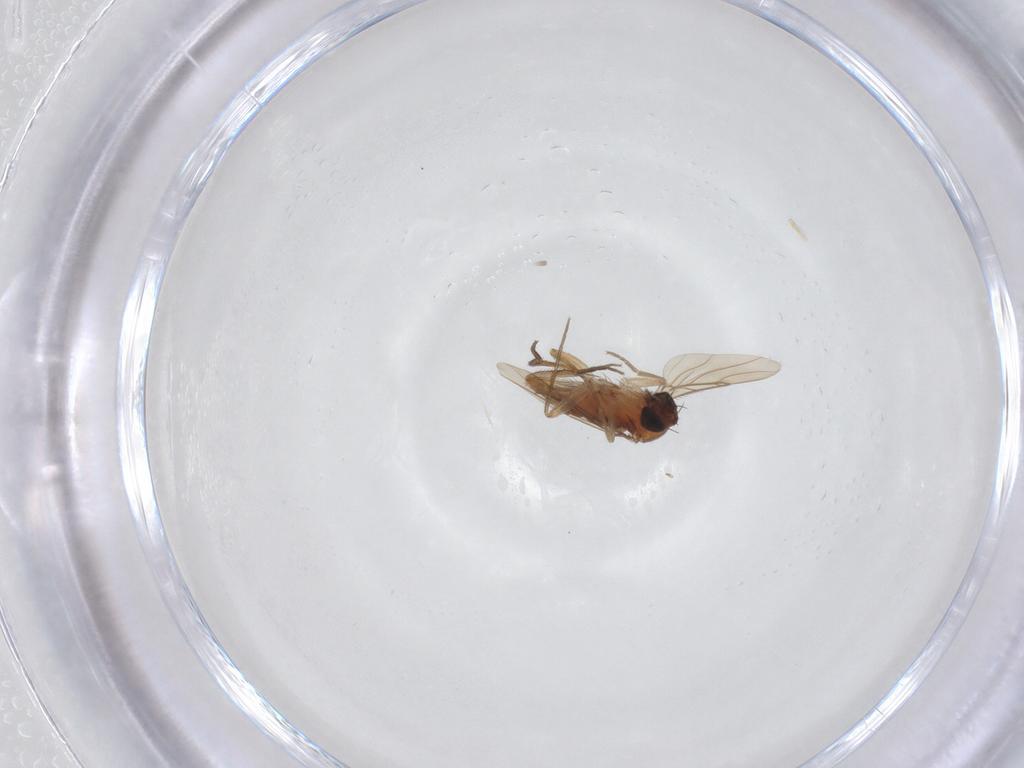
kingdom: Animalia
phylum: Arthropoda
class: Insecta
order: Diptera
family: Phoridae
